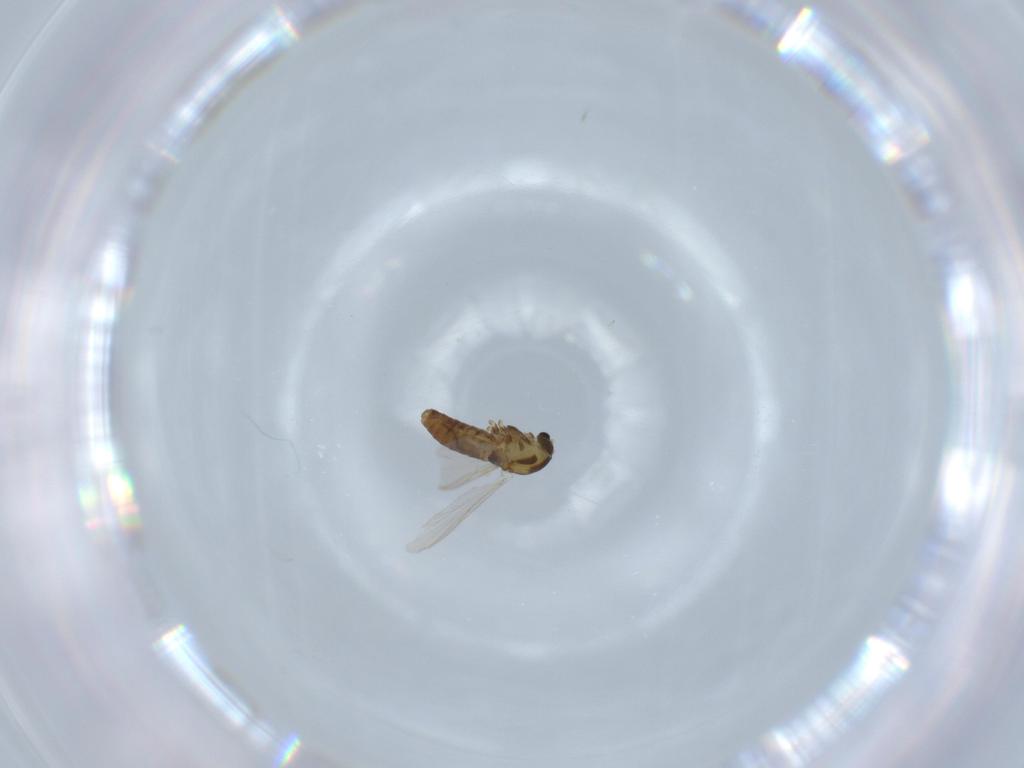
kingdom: Animalia
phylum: Arthropoda
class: Insecta
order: Diptera
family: Chironomidae
